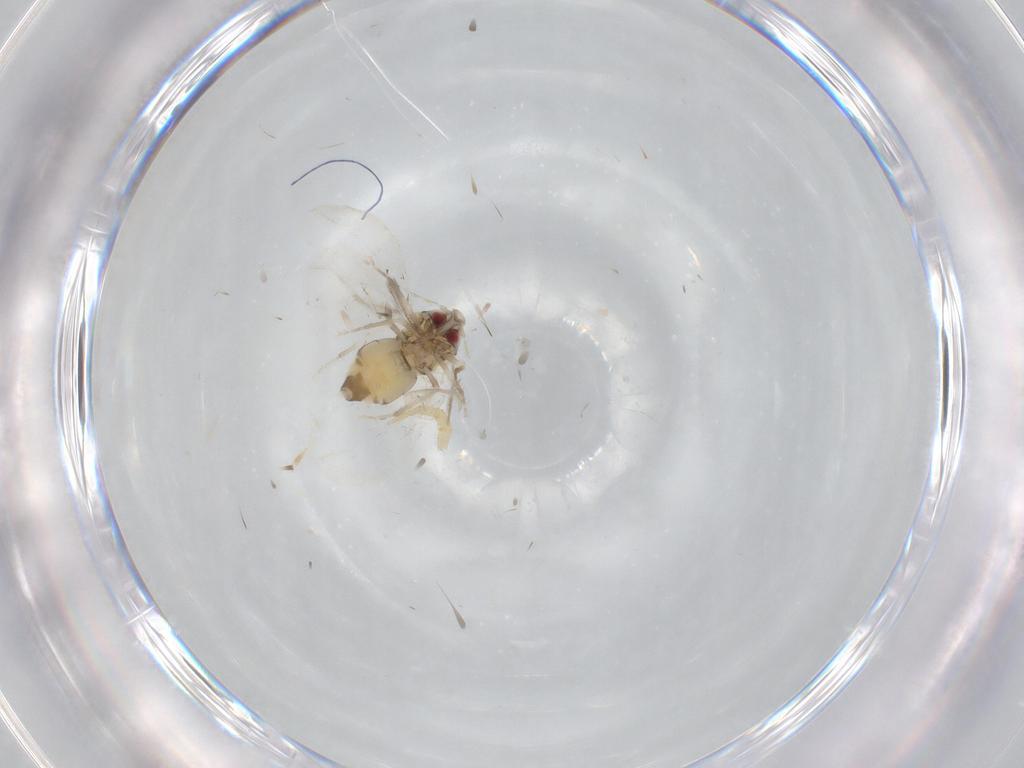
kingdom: Animalia
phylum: Arthropoda
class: Insecta
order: Hemiptera
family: Aleyrodidae
